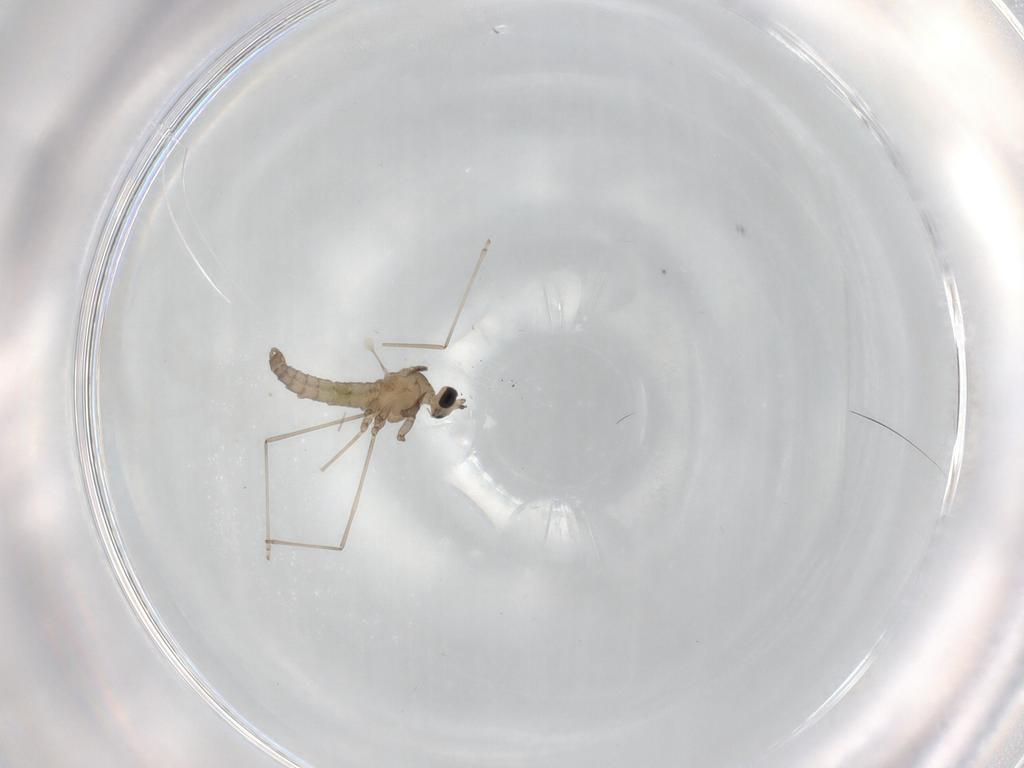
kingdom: Animalia
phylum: Arthropoda
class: Insecta
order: Diptera
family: Cecidomyiidae
